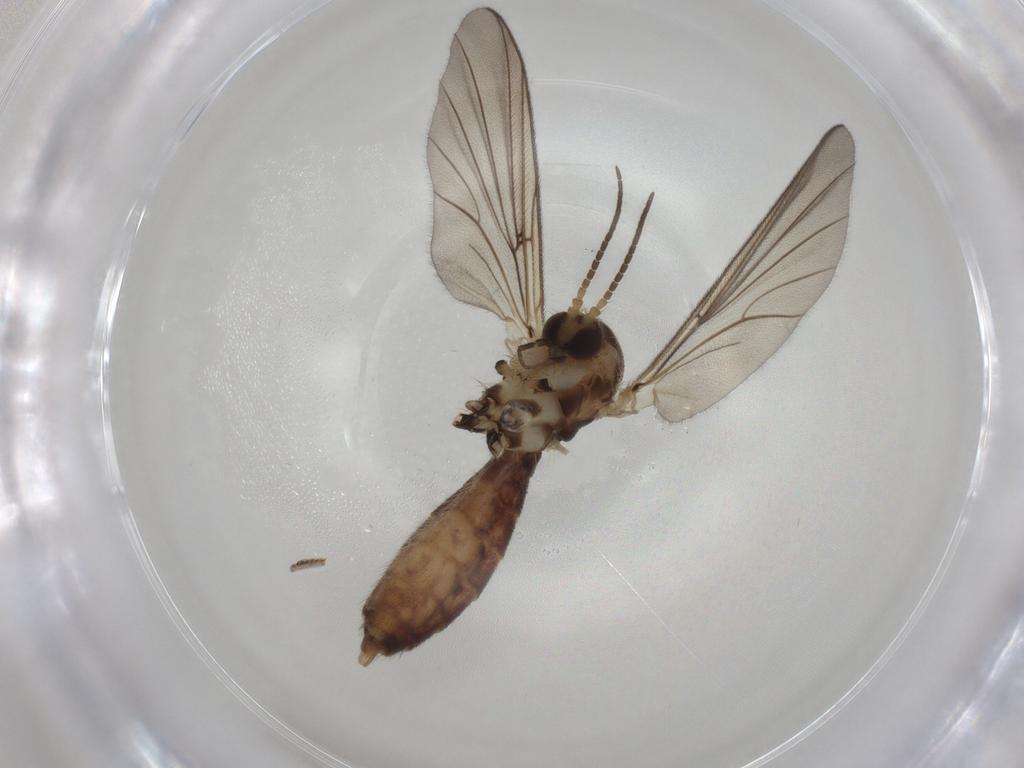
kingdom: Animalia
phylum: Arthropoda
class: Insecta
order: Diptera
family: Mycetophilidae
